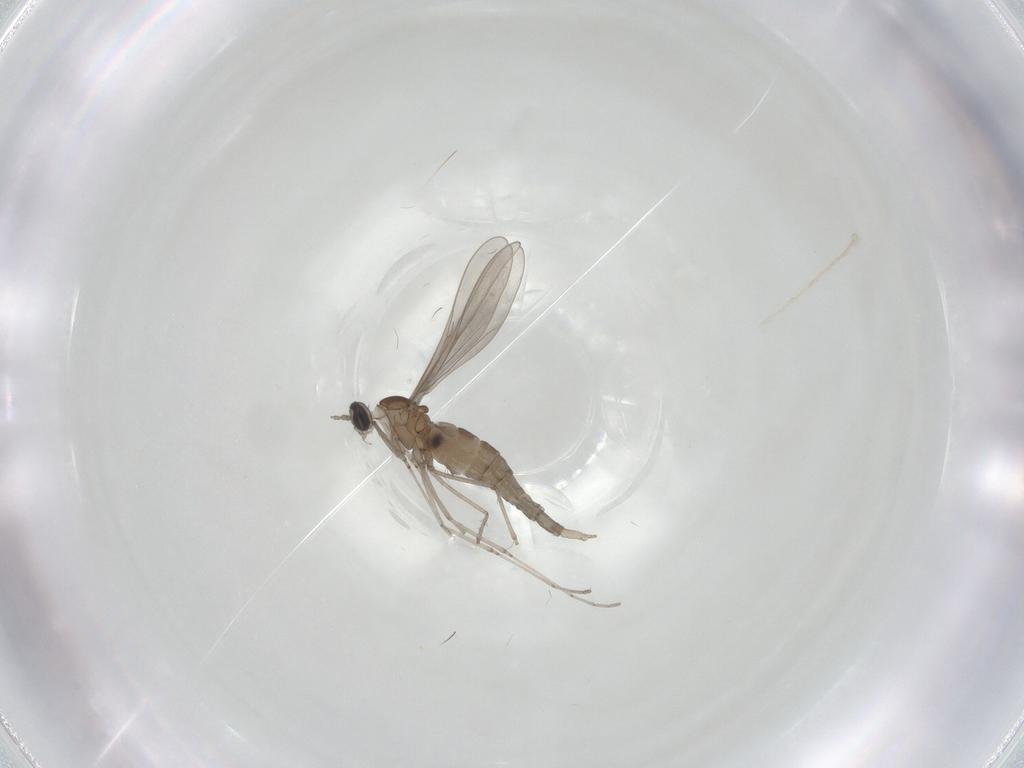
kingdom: Animalia
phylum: Arthropoda
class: Insecta
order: Diptera
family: Cecidomyiidae
